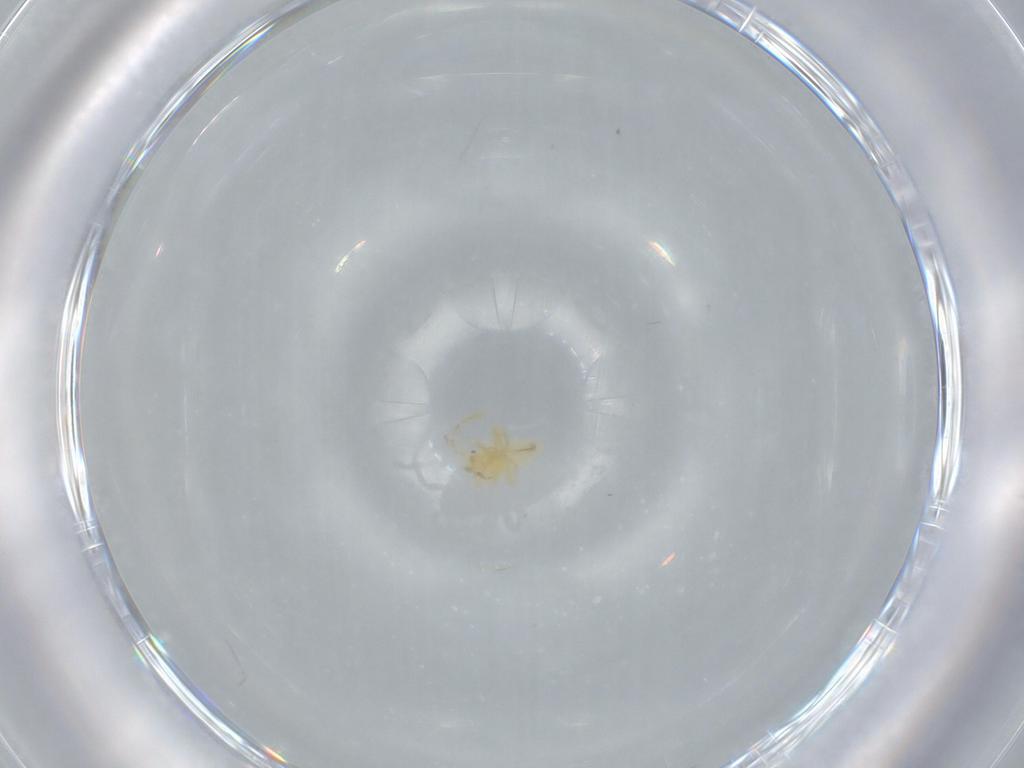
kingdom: Animalia
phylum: Arthropoda
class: Insecta
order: Hemiptera
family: Miridae
